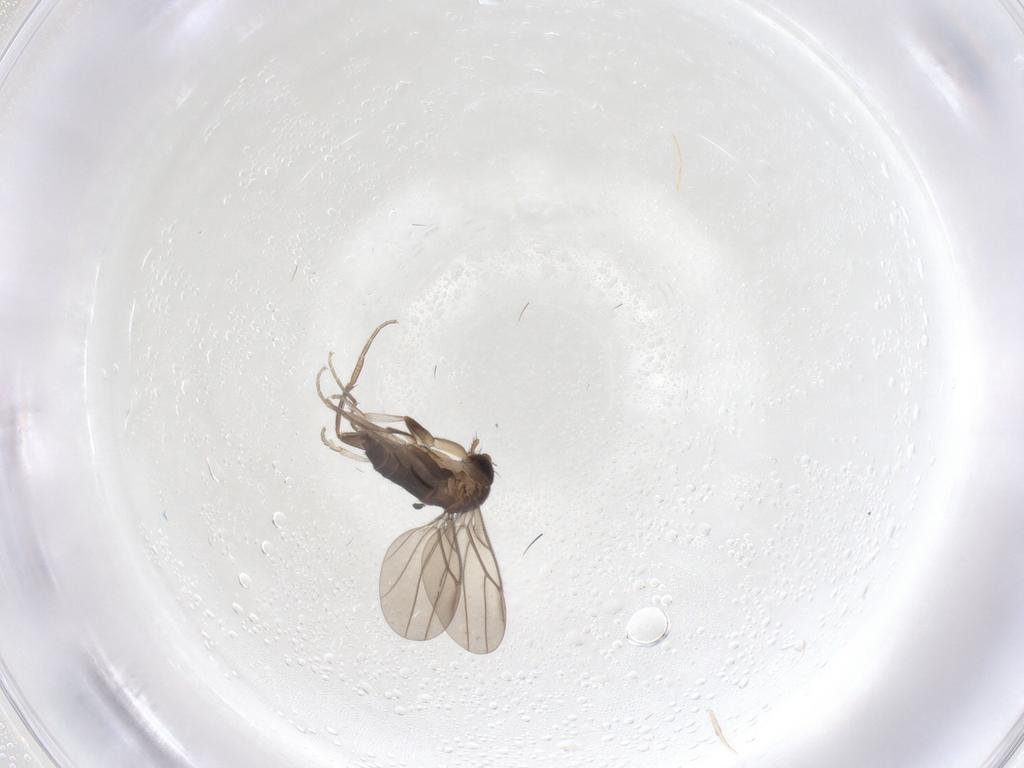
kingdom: Animalia
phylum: Arthropoda
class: Insecta
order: Diptera
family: Cecidomyiidae
